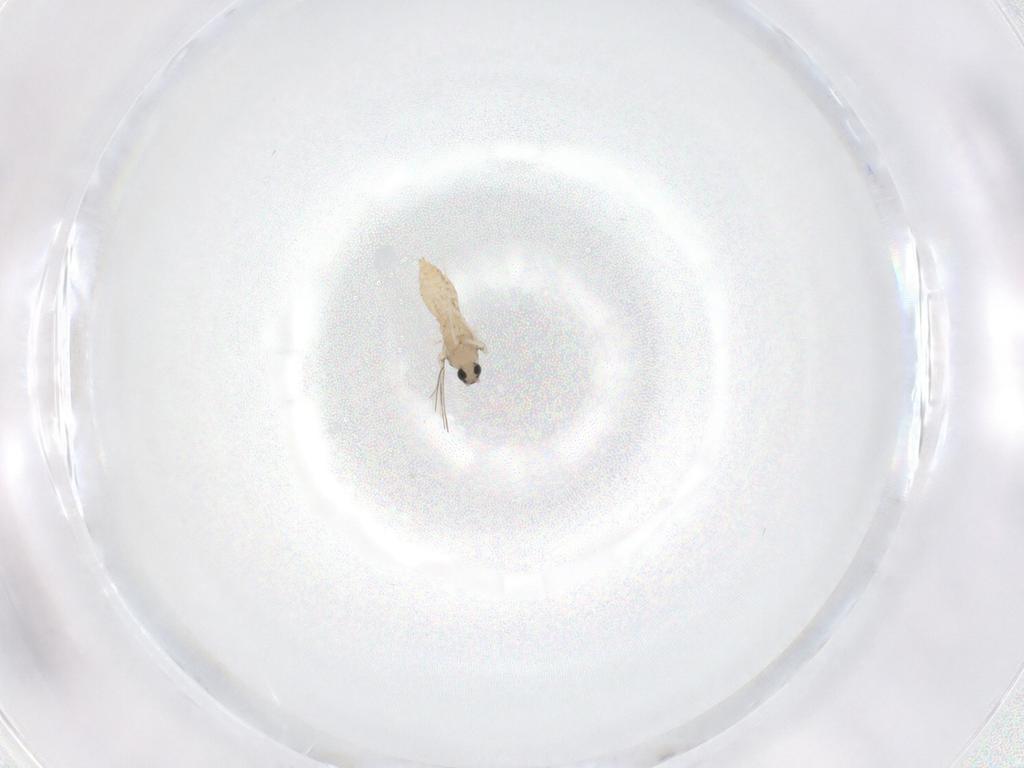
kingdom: Animalia
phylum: Arthropoda
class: Insecta
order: Diptera
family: Cecidomyiidae
